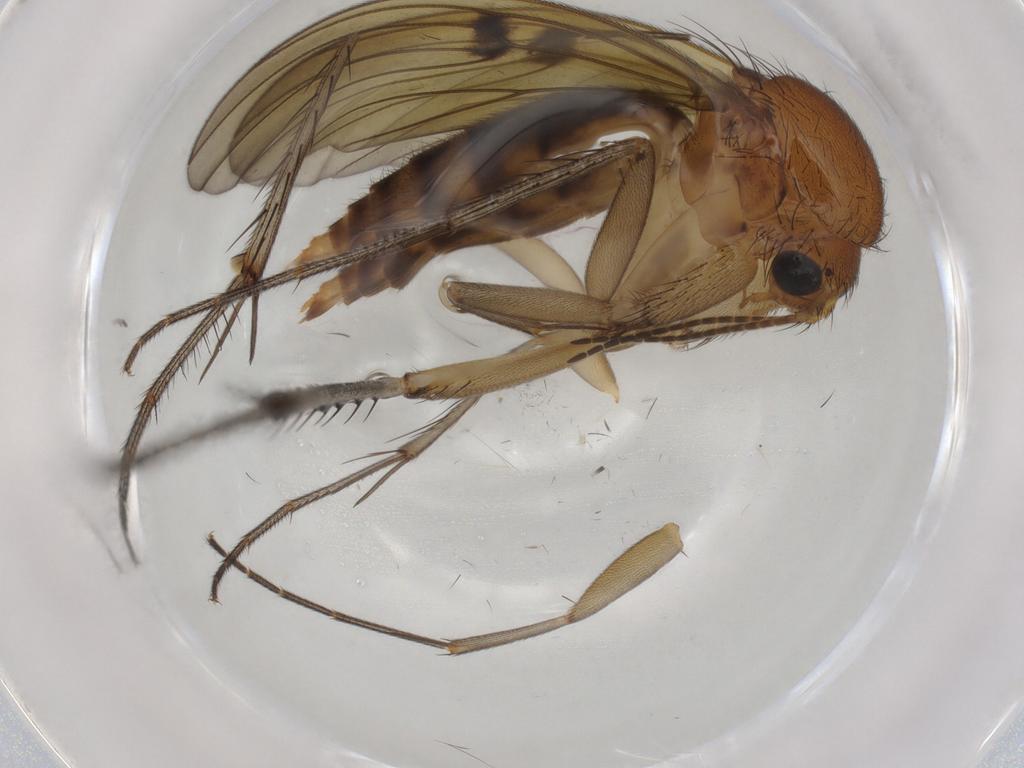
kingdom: Animalia
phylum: Arthropoda
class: Insecta
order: Diptera
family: Sciaridae
